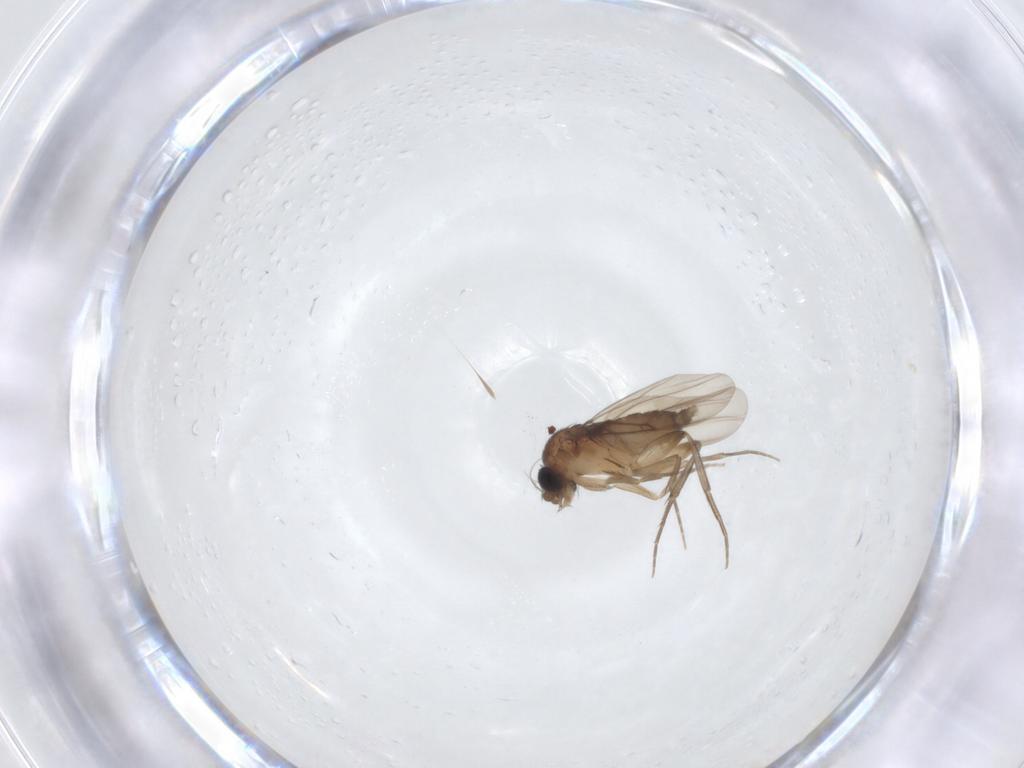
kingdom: Animalia
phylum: Arthropoda
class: Insecta
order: Diptera
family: Phoridae
